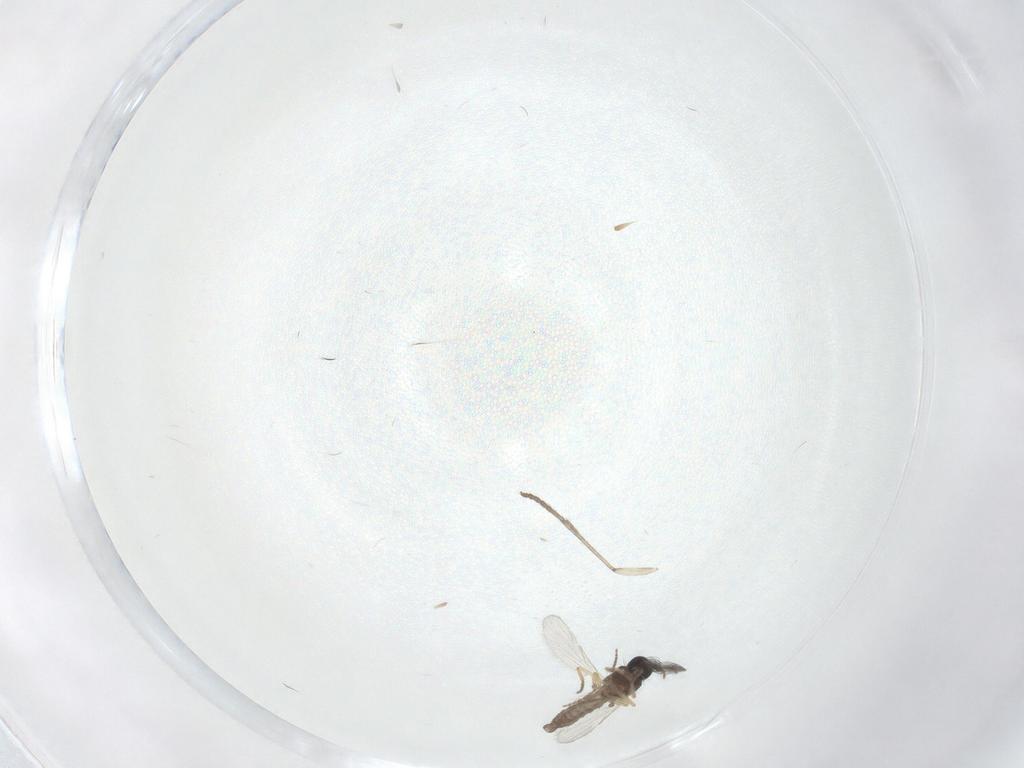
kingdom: Animalia
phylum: Arthropoda
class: Insecta
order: Diptera
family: Ceratopogonidae
